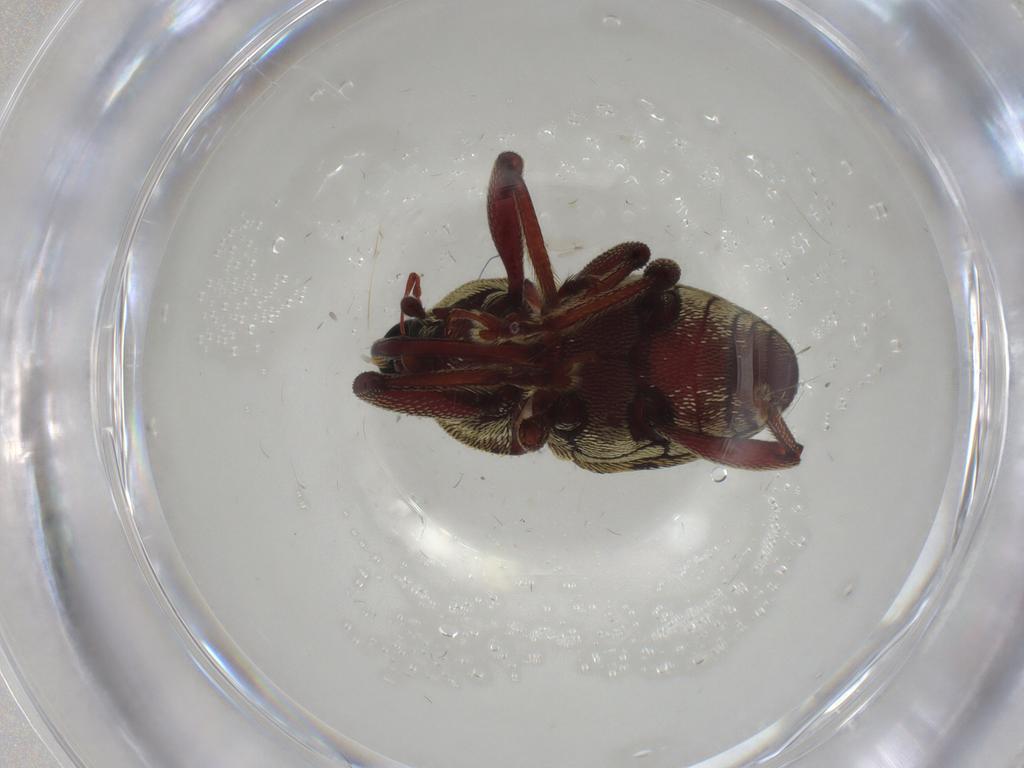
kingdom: Animalia
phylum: Arthropoda
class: Insecta
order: Coleoptera
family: Curculionidae
